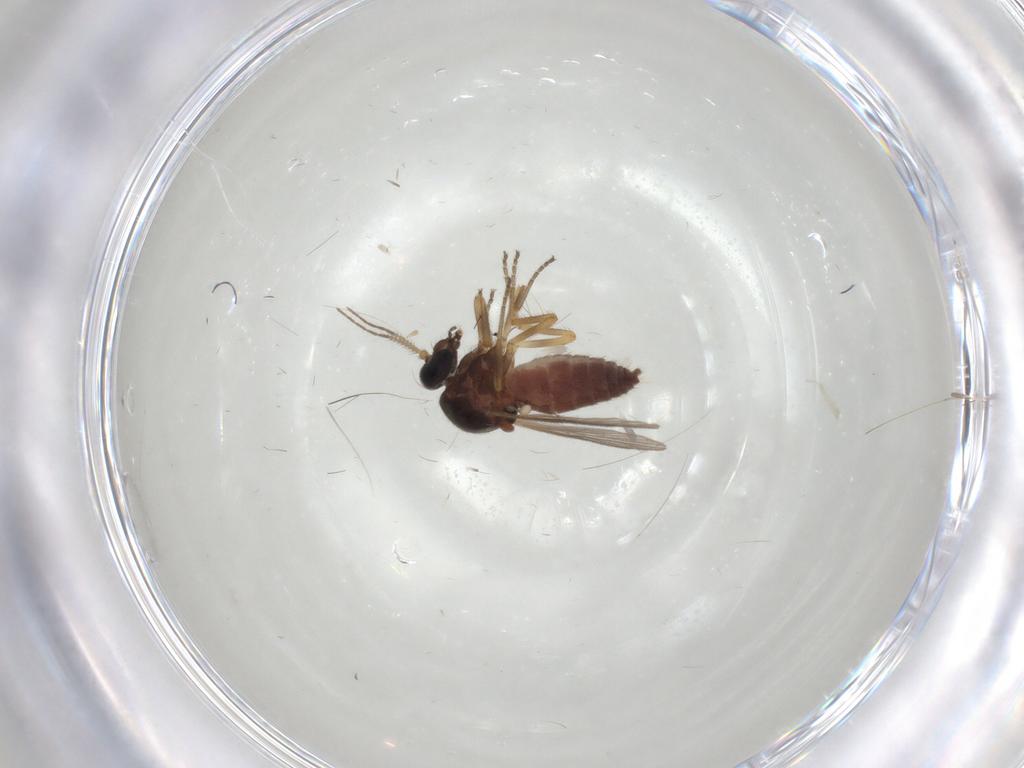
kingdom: Animalia
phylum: Arthropoda
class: Insecta
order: Diptera
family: Phoridae
